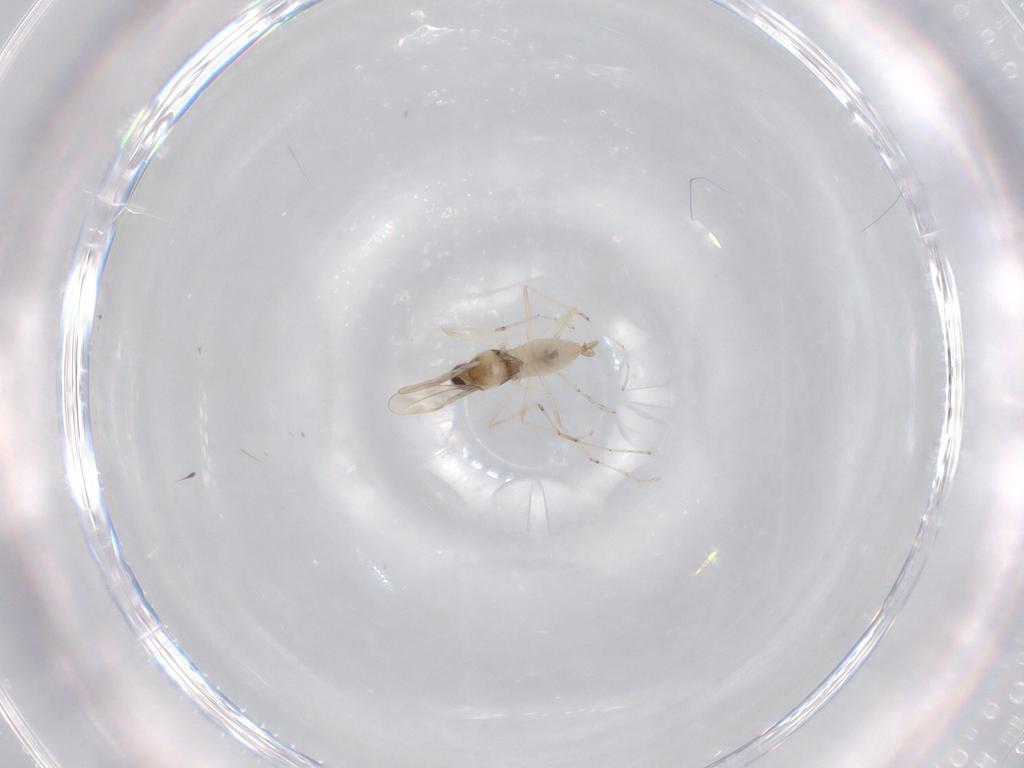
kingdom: Animalia
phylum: Arthropoda
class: Insecta
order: Diptera
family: Cecidomyiidae
